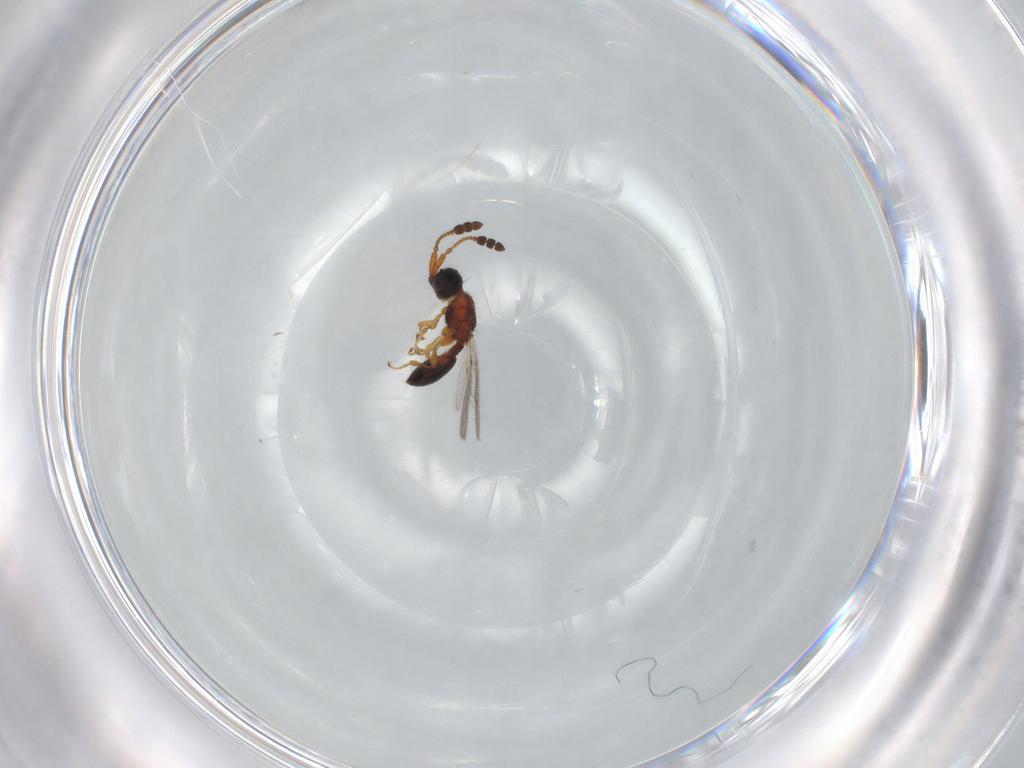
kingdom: Animalia
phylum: Arthropoda
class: Insecta
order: Hymenoptera
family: Diapriidae
